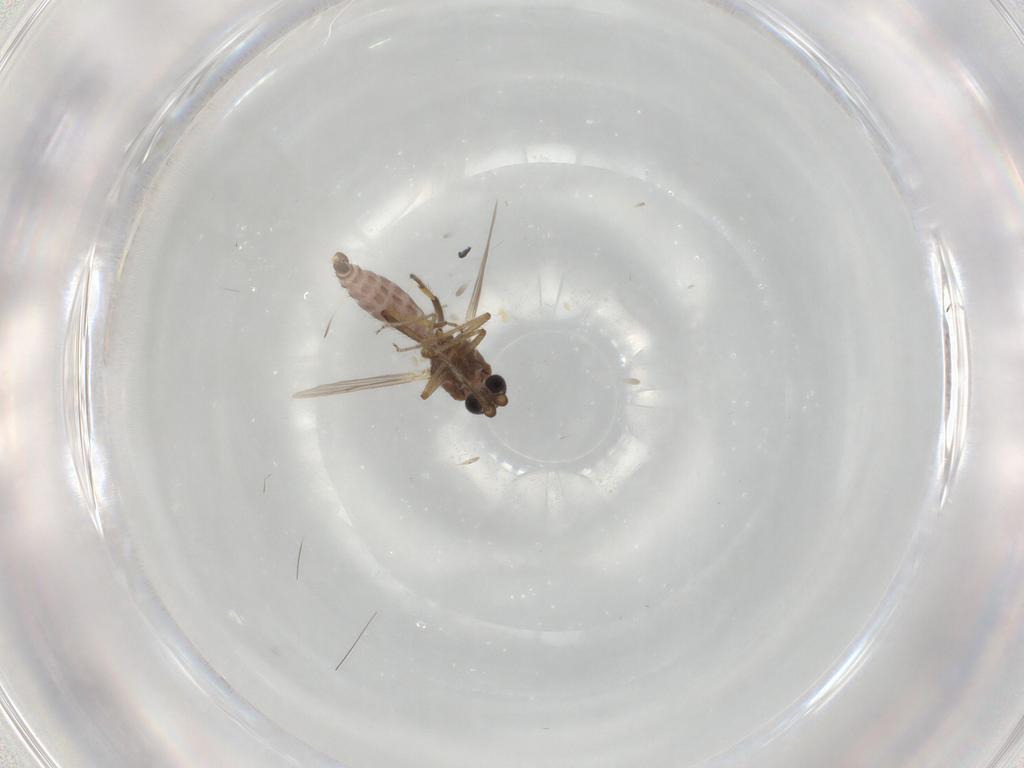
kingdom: Animalia
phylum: Arthropoda
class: Insecta
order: Diptera
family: Ceratopogonidae
